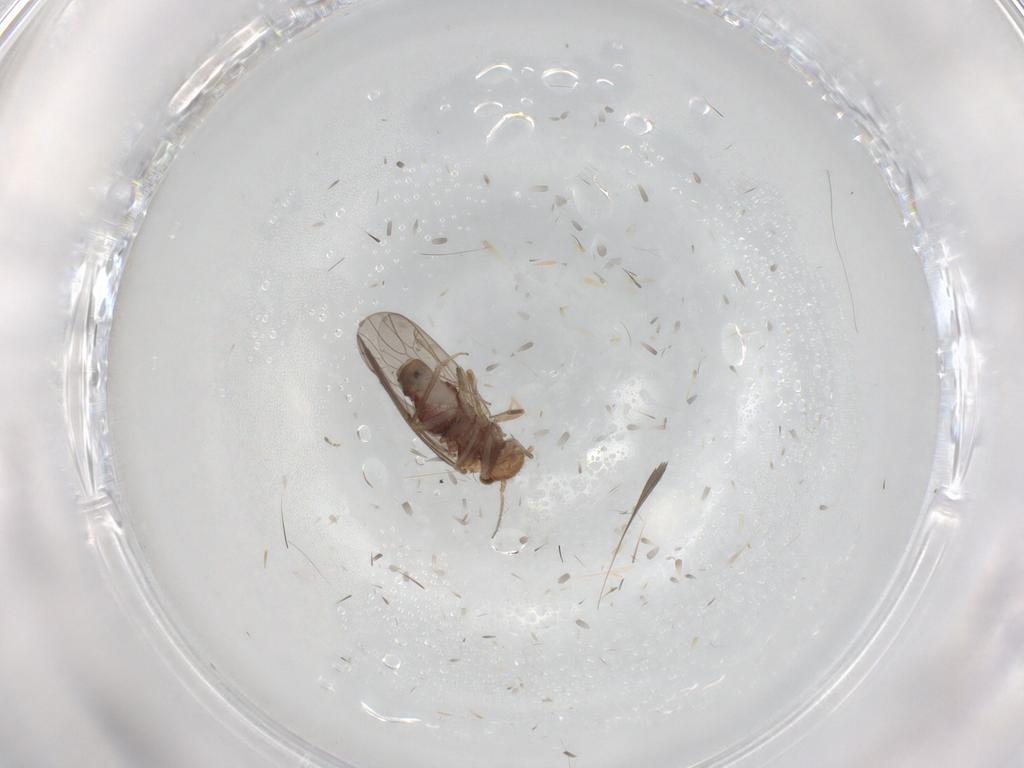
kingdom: Animalia
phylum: Arthropoda
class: Insecta
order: Psocodea
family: Ectopsocidae
